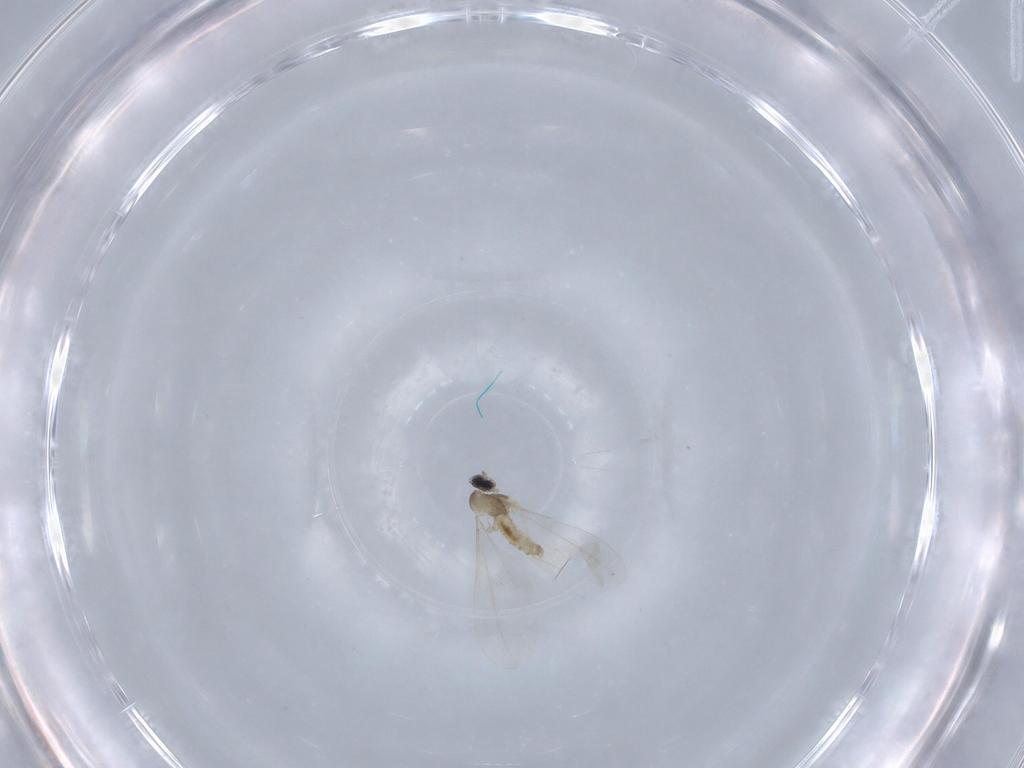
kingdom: Animalia
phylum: Arthropoda
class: Insecta
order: Diptera
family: Cecidomyiidae
